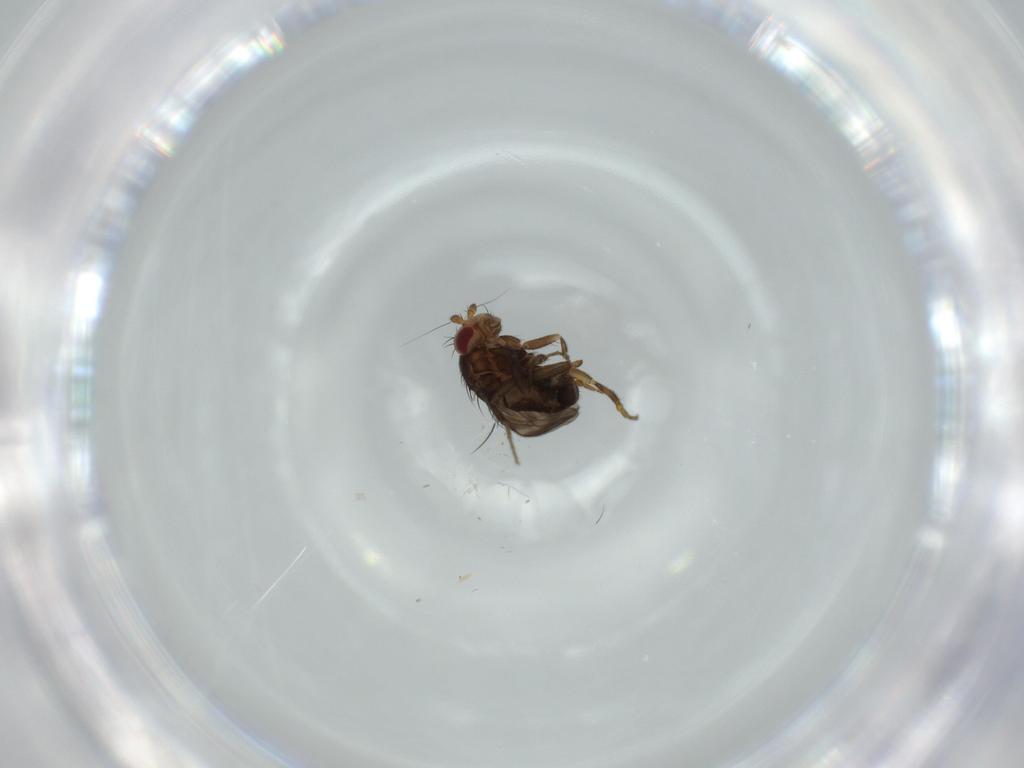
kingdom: Animalia
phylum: Arthropoda
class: Insecta
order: Diptera
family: Sphaeroceridae
